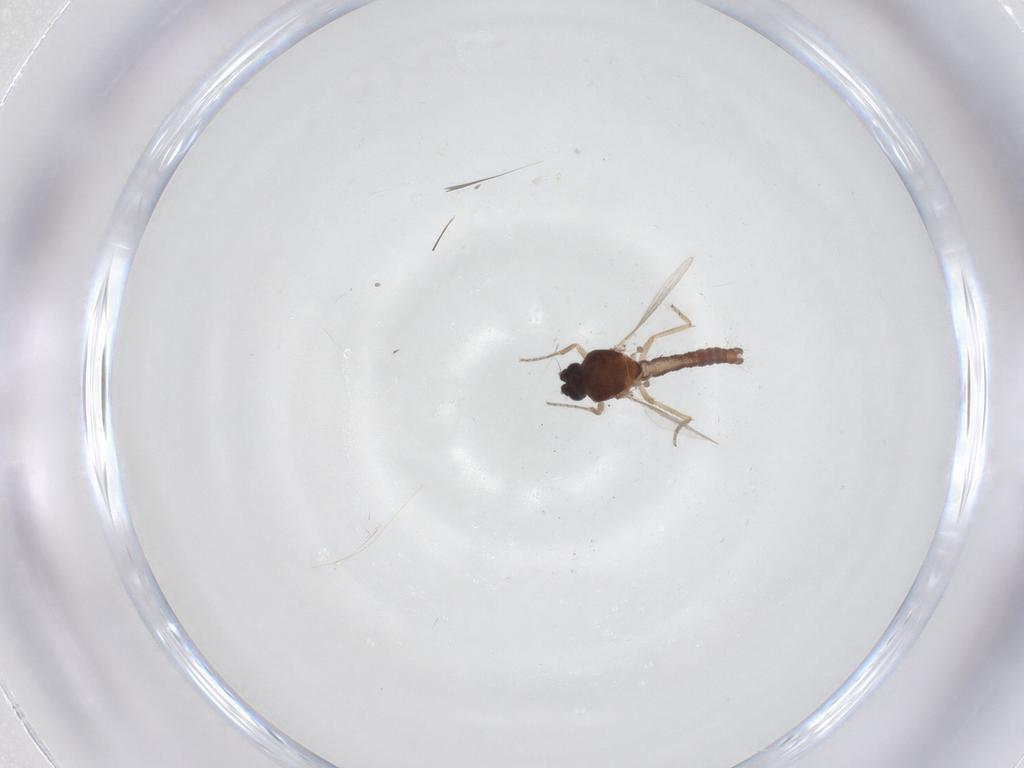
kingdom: Animalia
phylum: Arthropoda
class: Insecta
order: Diptera
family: Ceratopogonidae
